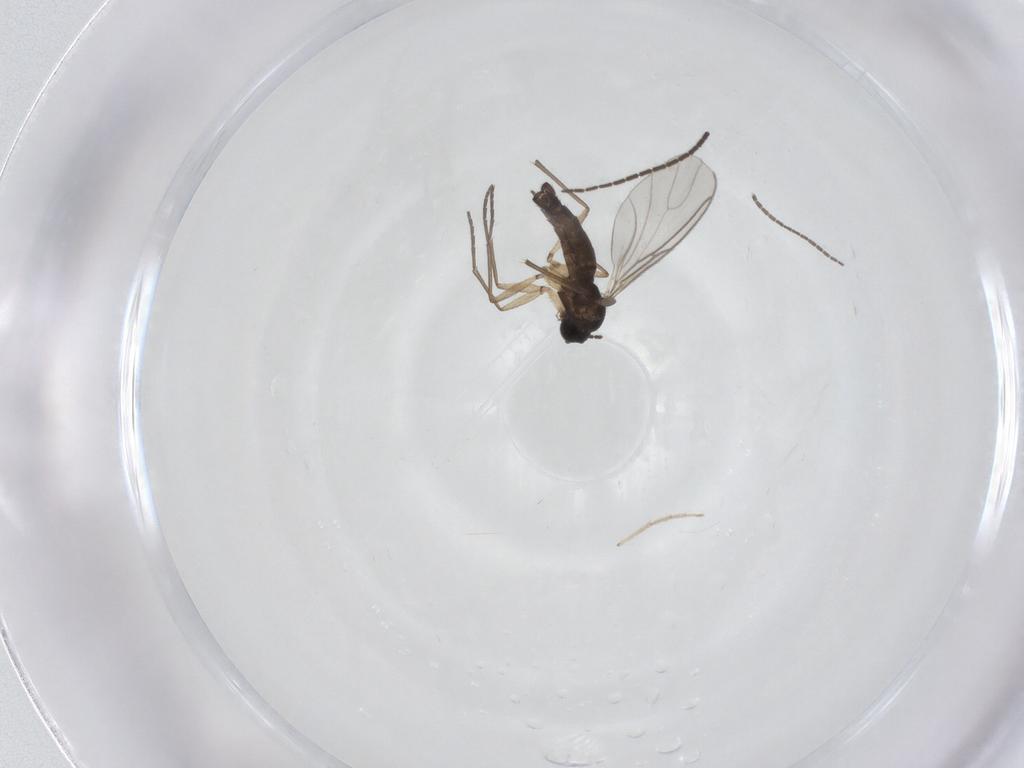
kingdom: Animalia
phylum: Arthropoda
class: Insecta
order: Diptera
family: Sciaridae
